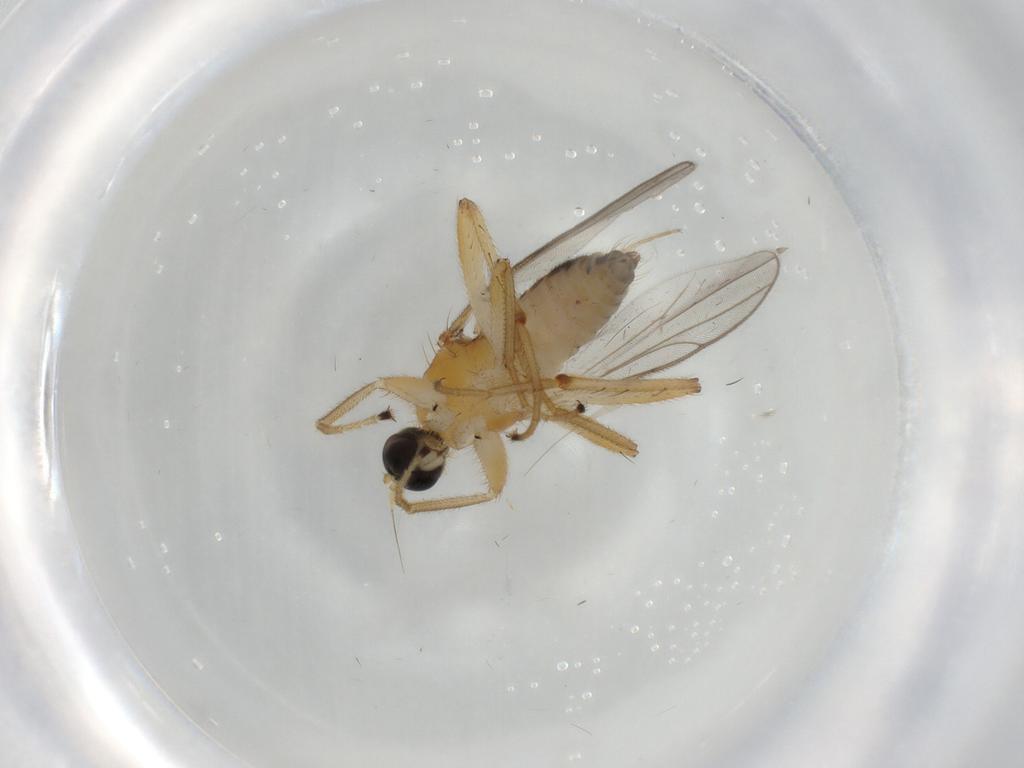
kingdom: Animalia
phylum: Arthropoda
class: Insecta
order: Diptera
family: Hybotidae
